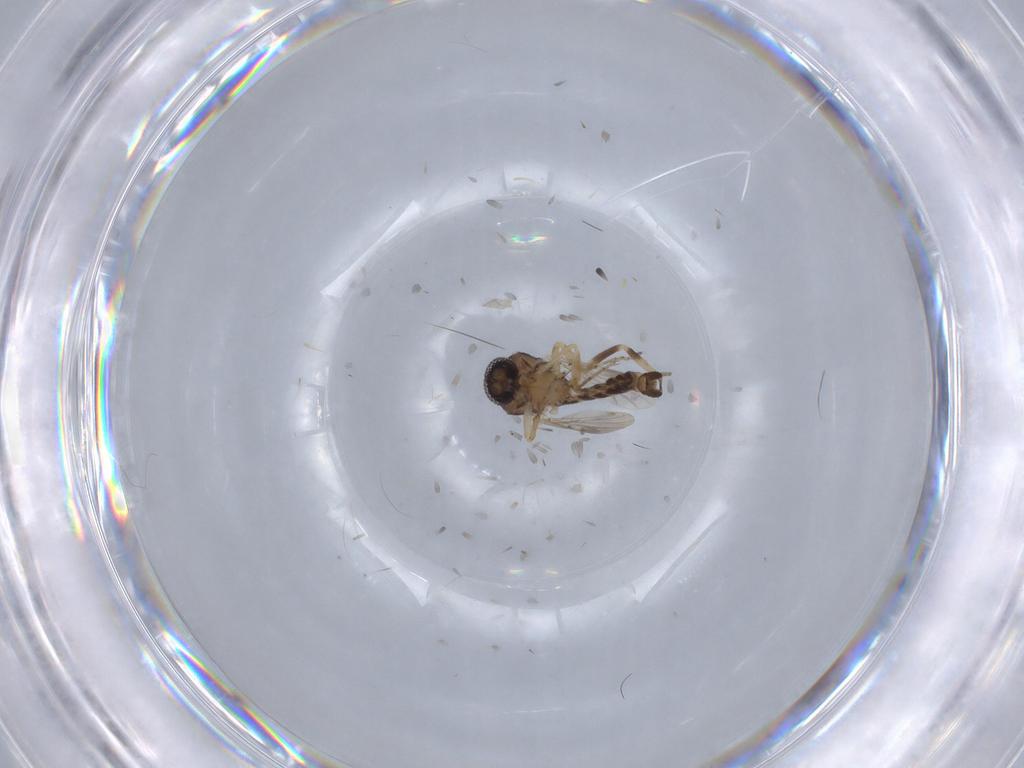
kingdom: Animalia
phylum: Arthropoda
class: Insecta
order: Diptera
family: Ceratopogonidae
